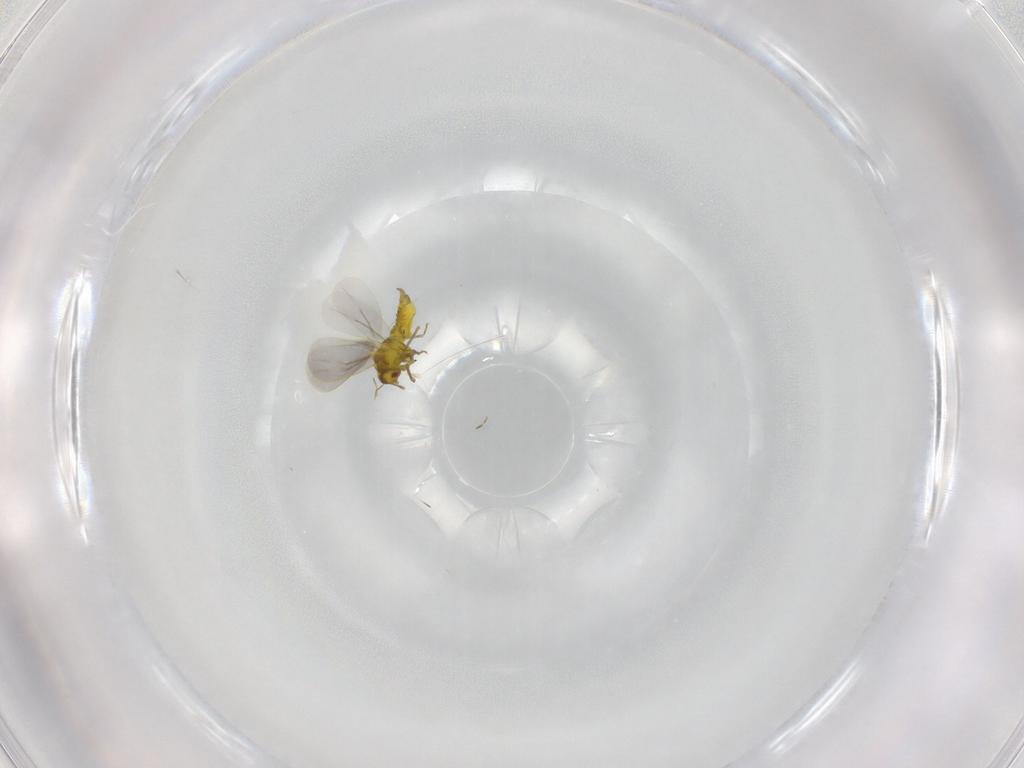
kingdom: Animalia
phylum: Arthropoda
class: Insecta
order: Hemiptera
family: Aleyrodidae
